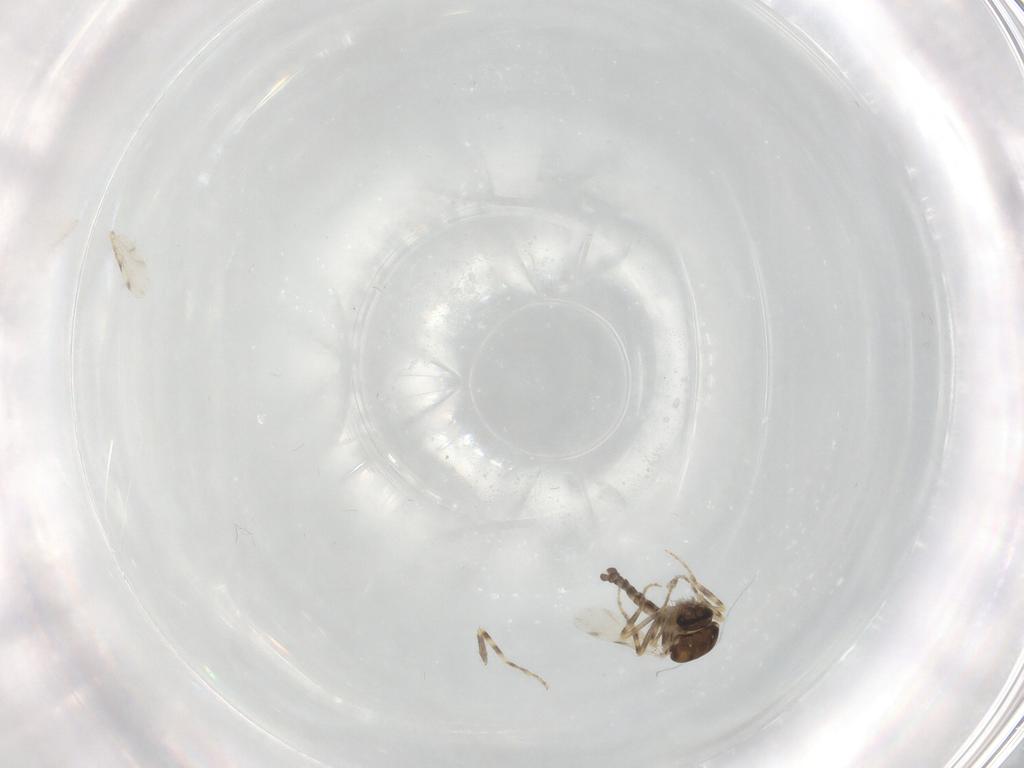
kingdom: Animalia
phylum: Arthropoda
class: Insecta
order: Diptera
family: Ceratopogonidae
